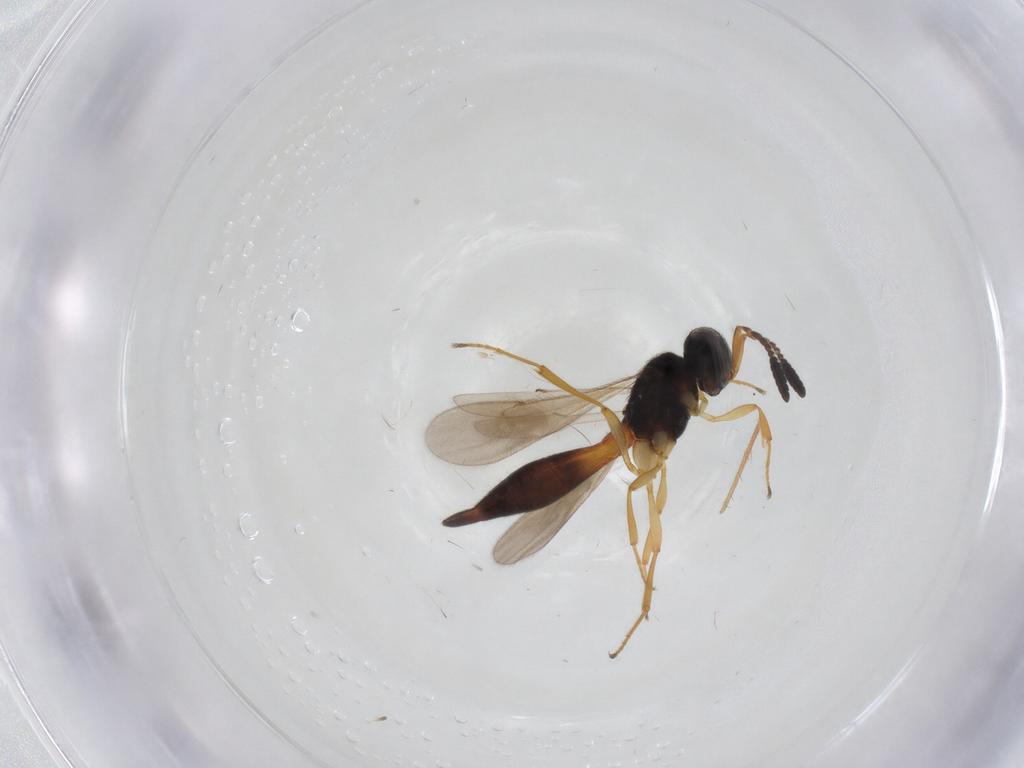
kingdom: Animalia
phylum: Arthropoda
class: Insecta
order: Hymenoptera
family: Scelionidae
